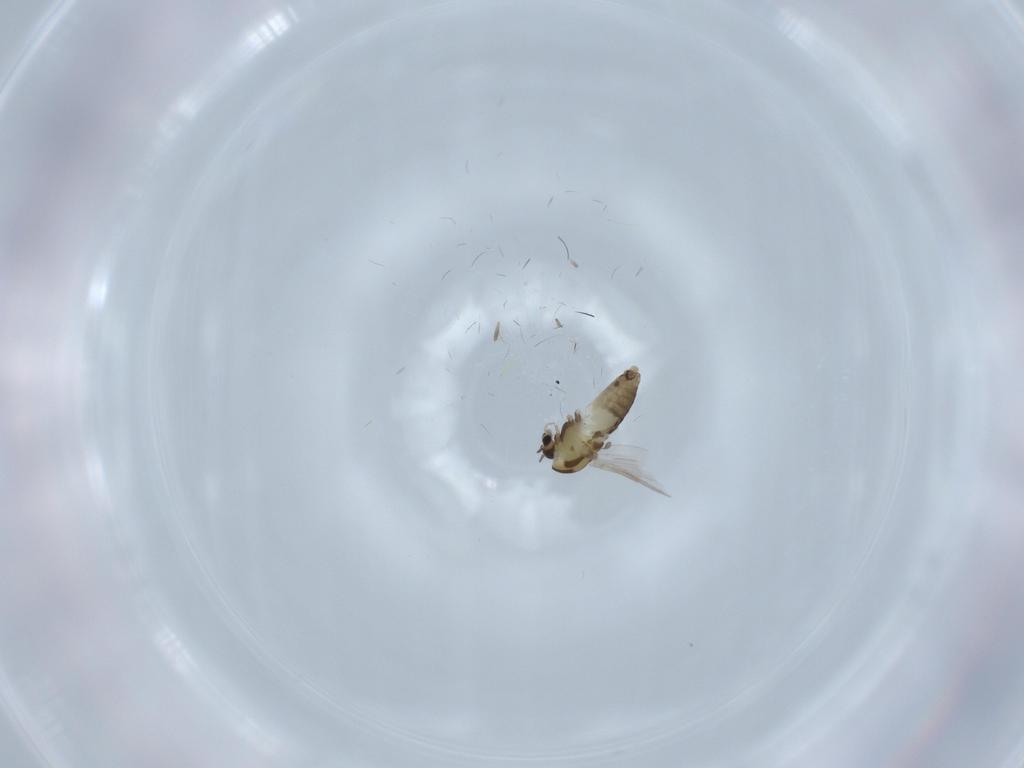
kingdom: Animalia
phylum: Arthropoda
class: Insecta
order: Diptera
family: Chironomidae
